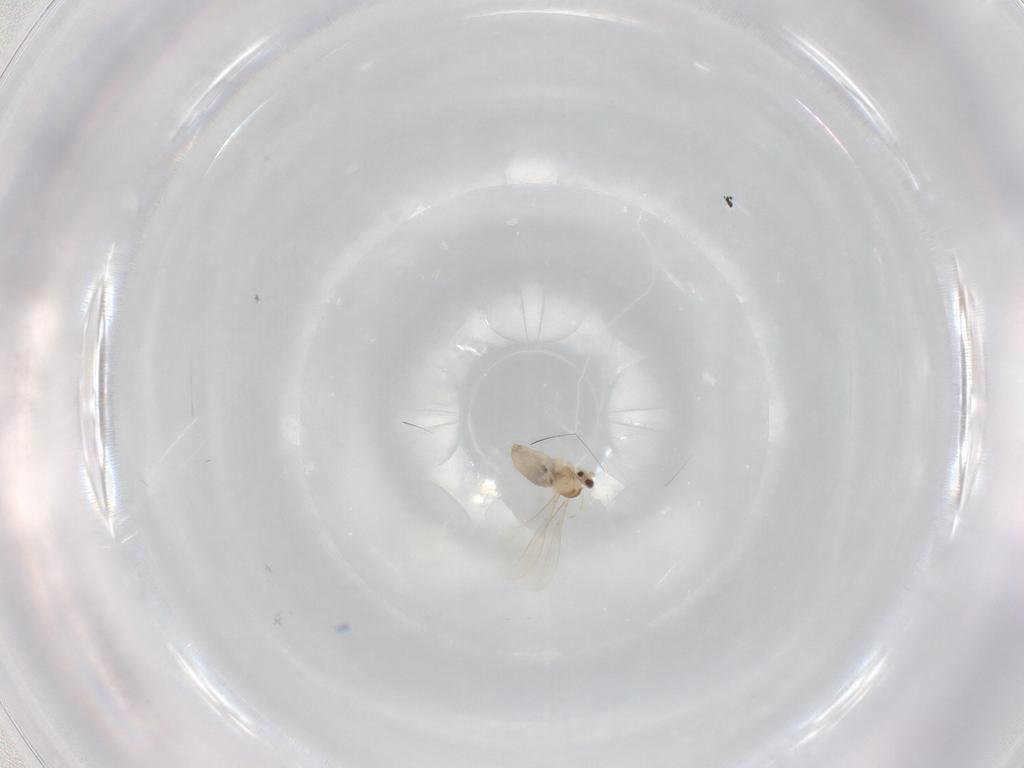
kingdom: Animalia
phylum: Arthropoda
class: Insecta
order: Diptera
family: Cecidomyiidae
